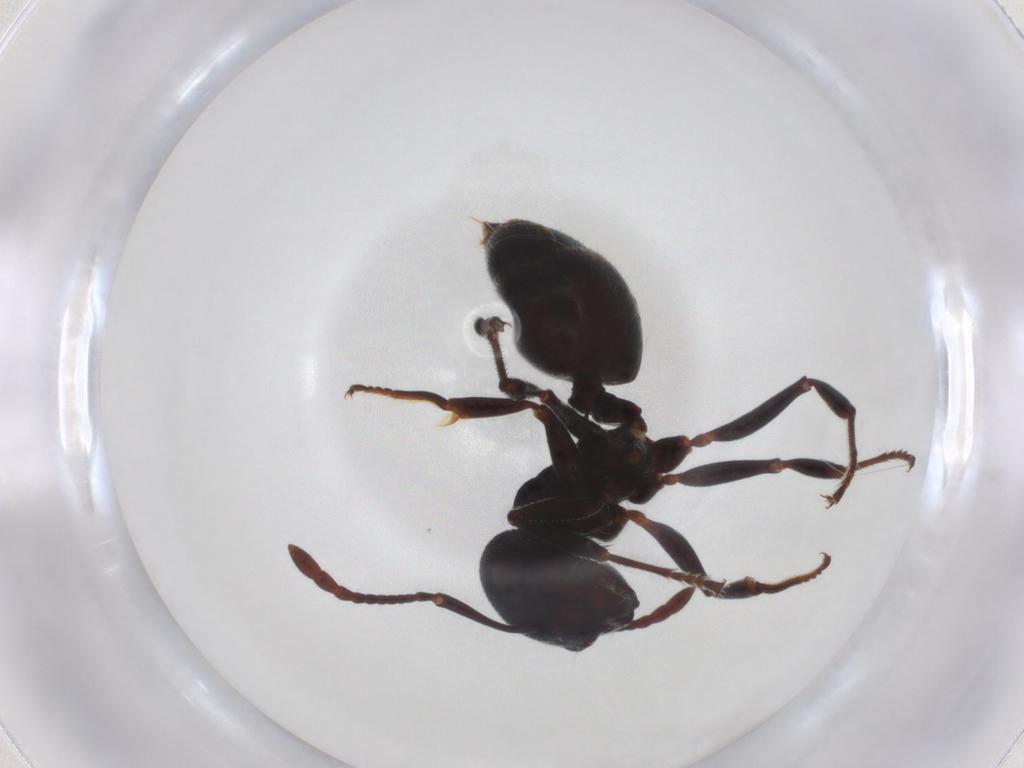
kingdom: Animalia
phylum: Arthropoda
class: Insecta
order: Hymenoptera
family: Formicidae
